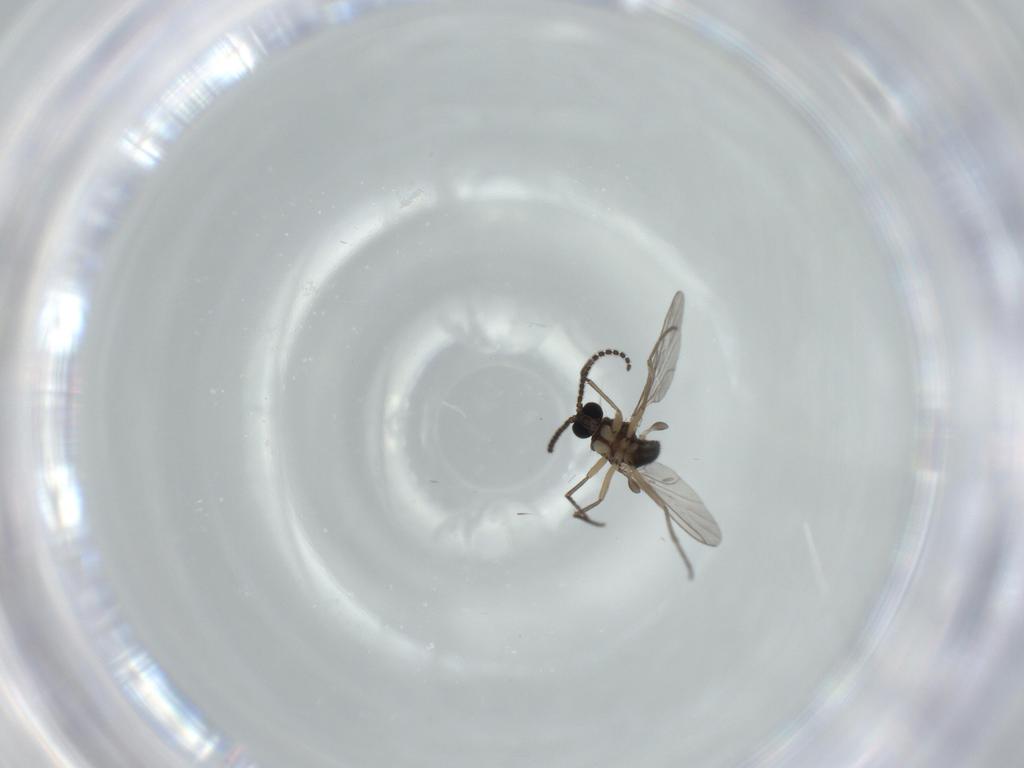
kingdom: Animalia
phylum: Arthropoda
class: Insecta
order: Diptera
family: Sciaridae
